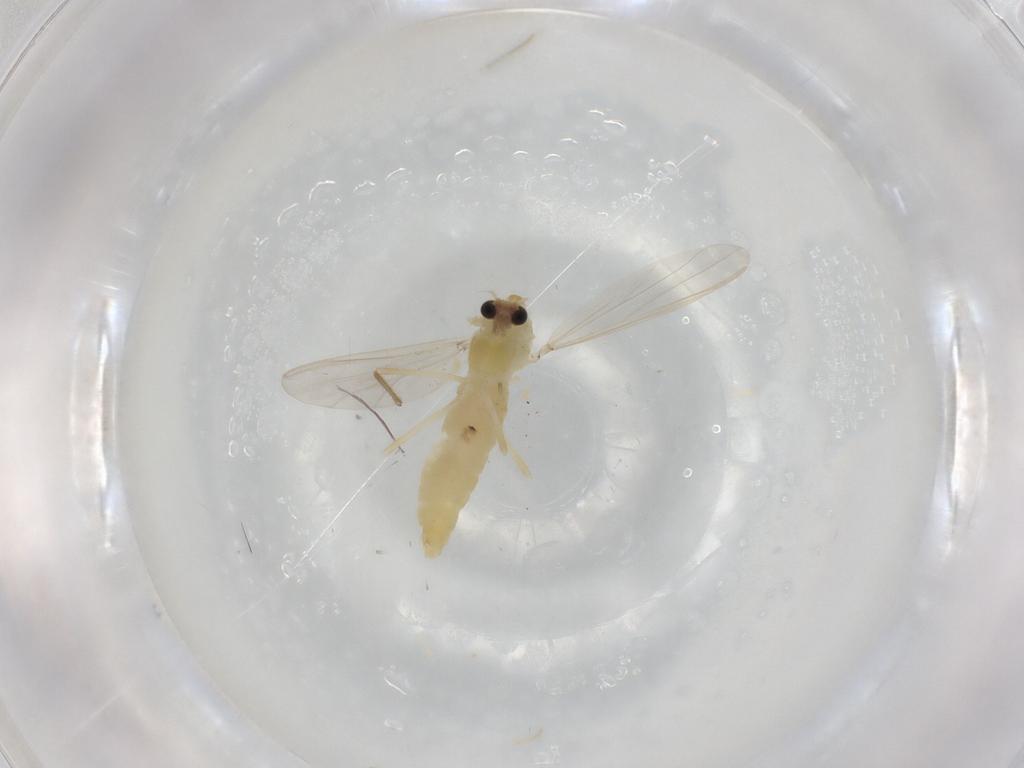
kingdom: Animalia
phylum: Arthropoda
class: Insecta
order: Diptera
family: Chironomidae
